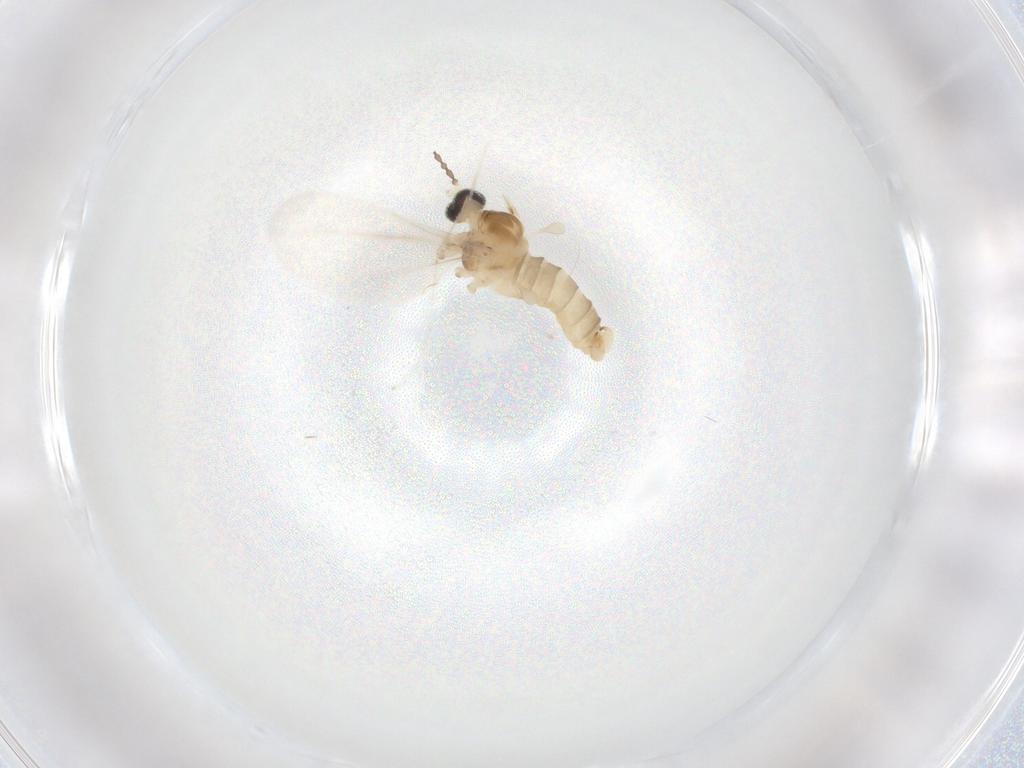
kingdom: Animalia
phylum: Arthropoda
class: Insecta
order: Diptera
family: Cecidomyiidae
